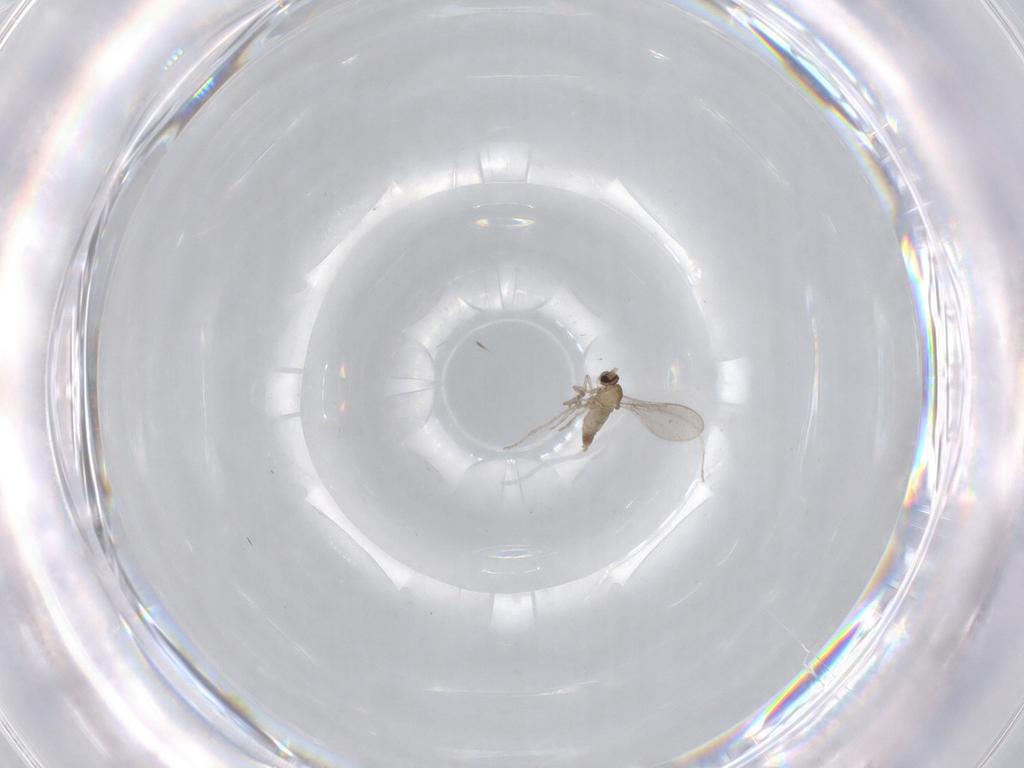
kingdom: Animalia
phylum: Arthropoda
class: Insecta
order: Diptera
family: Cecidomyiidae
